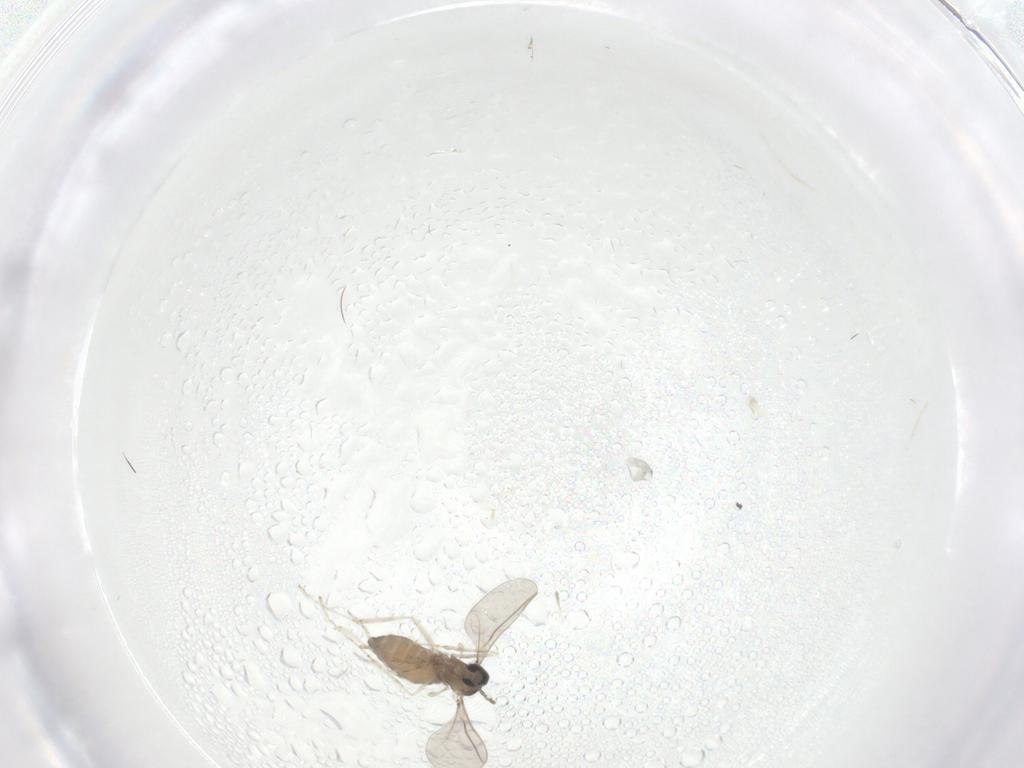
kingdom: Animalia
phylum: Arthropoda
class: Insecta
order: Diptera
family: Cecidomyiidae
